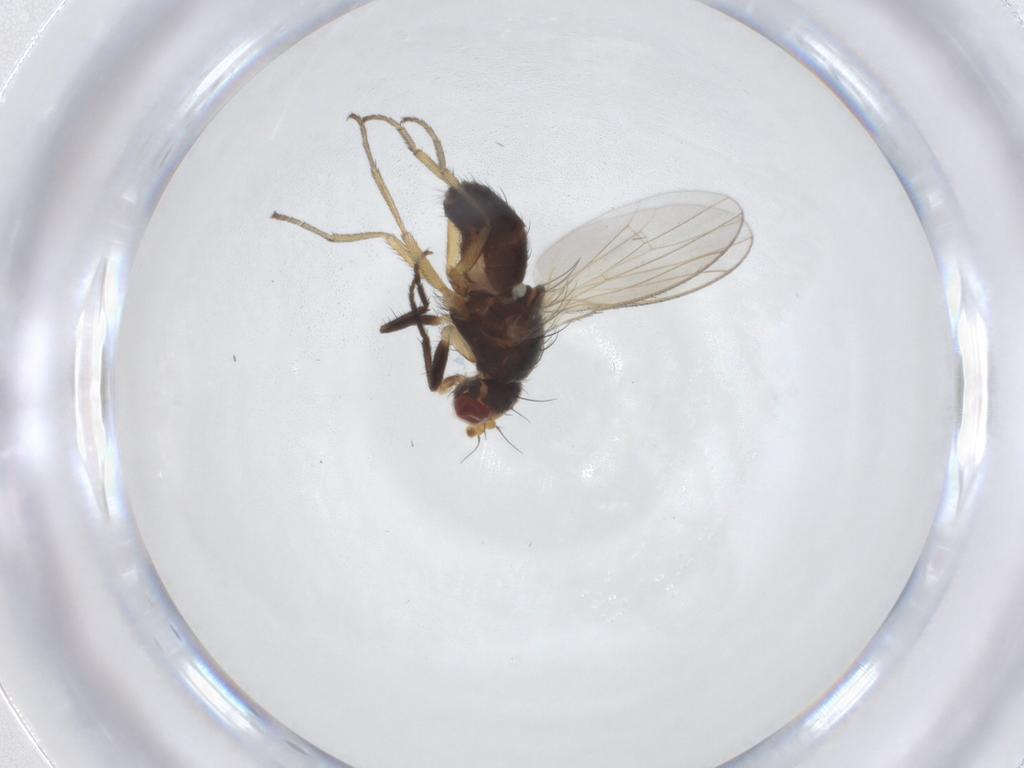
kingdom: Animalia
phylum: Arthropoda
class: Insecta
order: Diptera
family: Heleomyzidae
